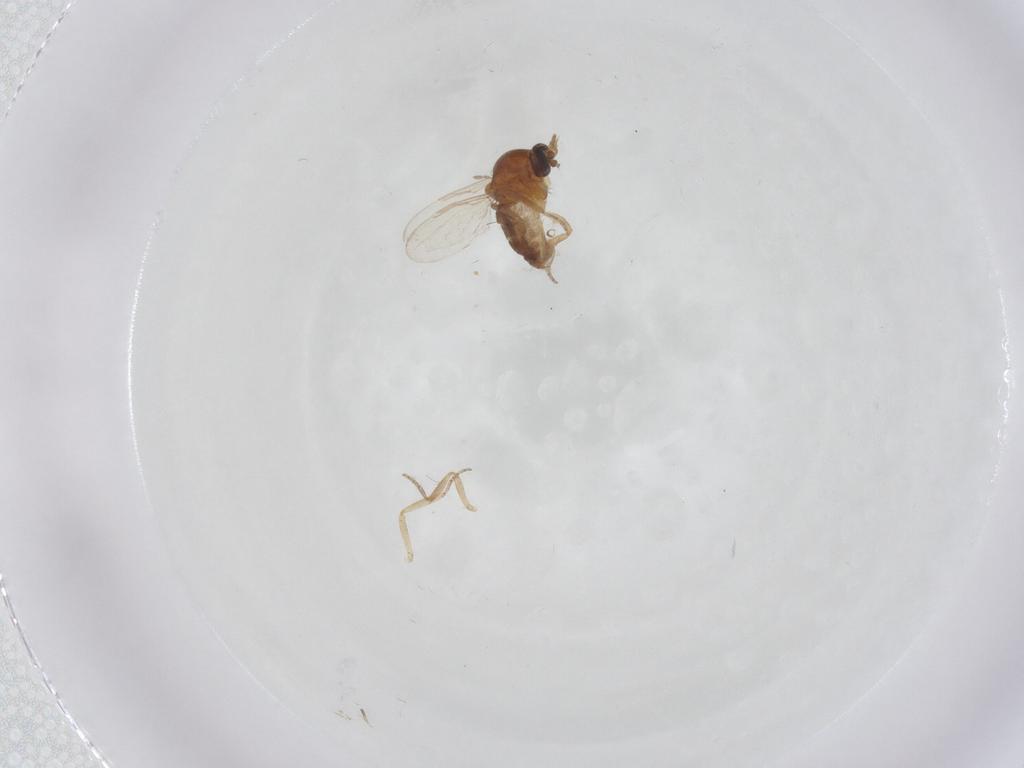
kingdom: Animalia
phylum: Arthropoda
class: Insecta
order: Diptera
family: Ceratopogonidae
